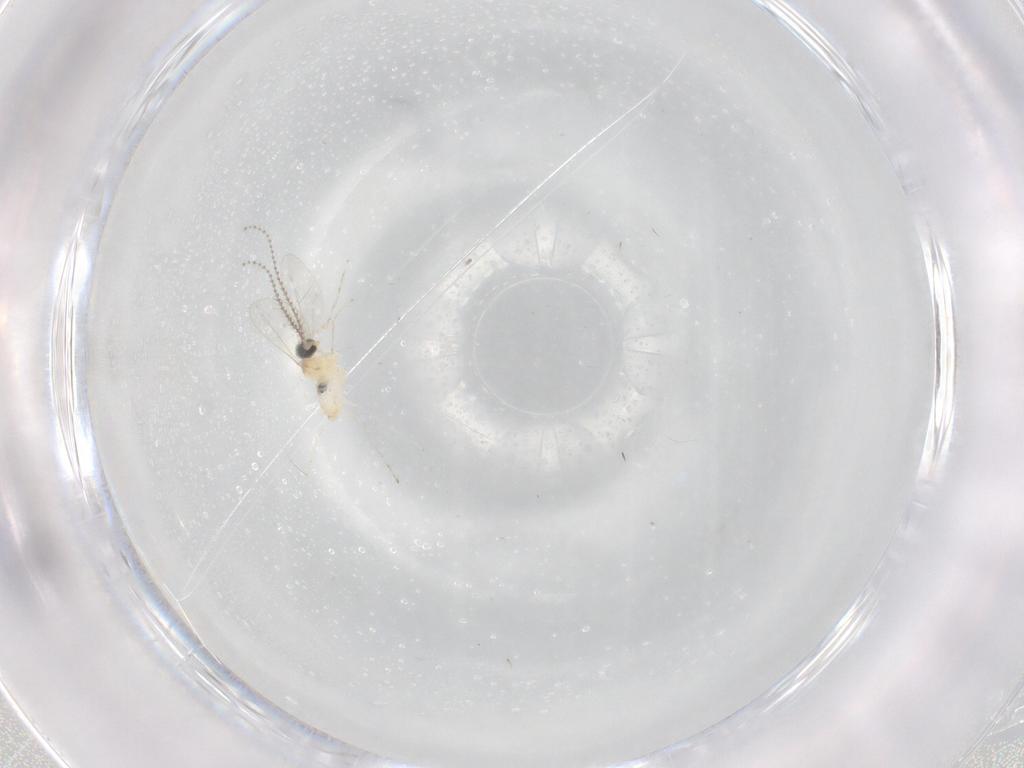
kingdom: Animalia
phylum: Arthropoda
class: Insecta
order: Diptera
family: Sciaridae
